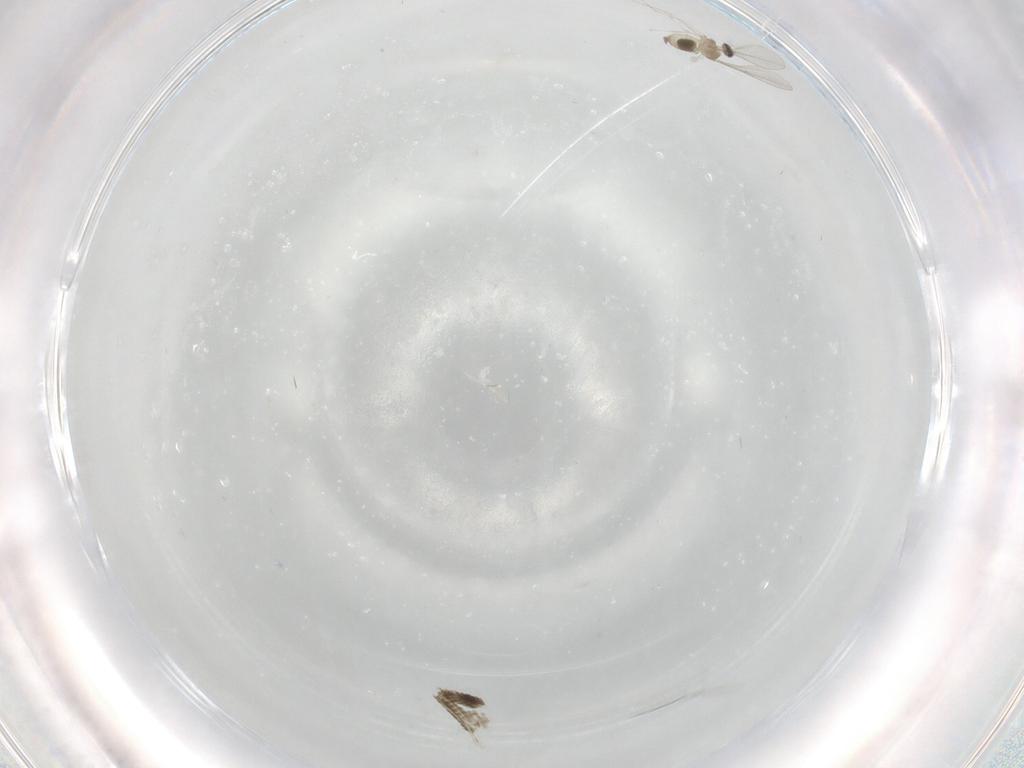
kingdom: Animalia
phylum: Arthropoda
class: Insecta
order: Diptera
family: Cecidomyiidae
